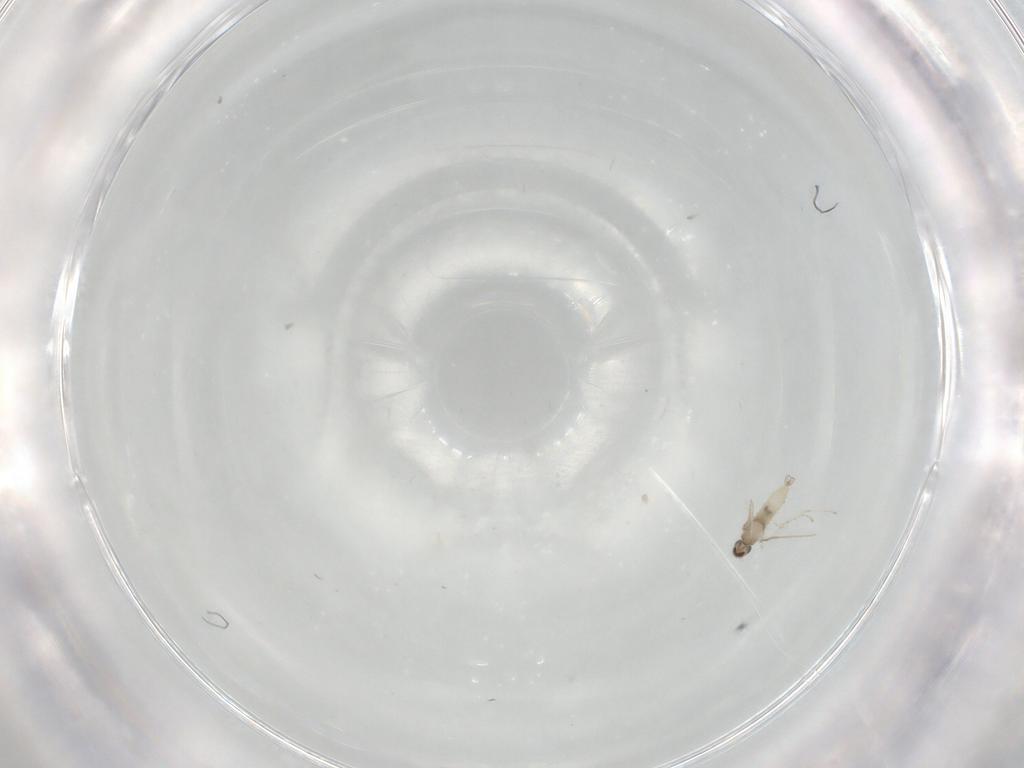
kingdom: Animalia
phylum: Arthropoda
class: Insecta
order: Diptera
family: Cecidomyiidae
